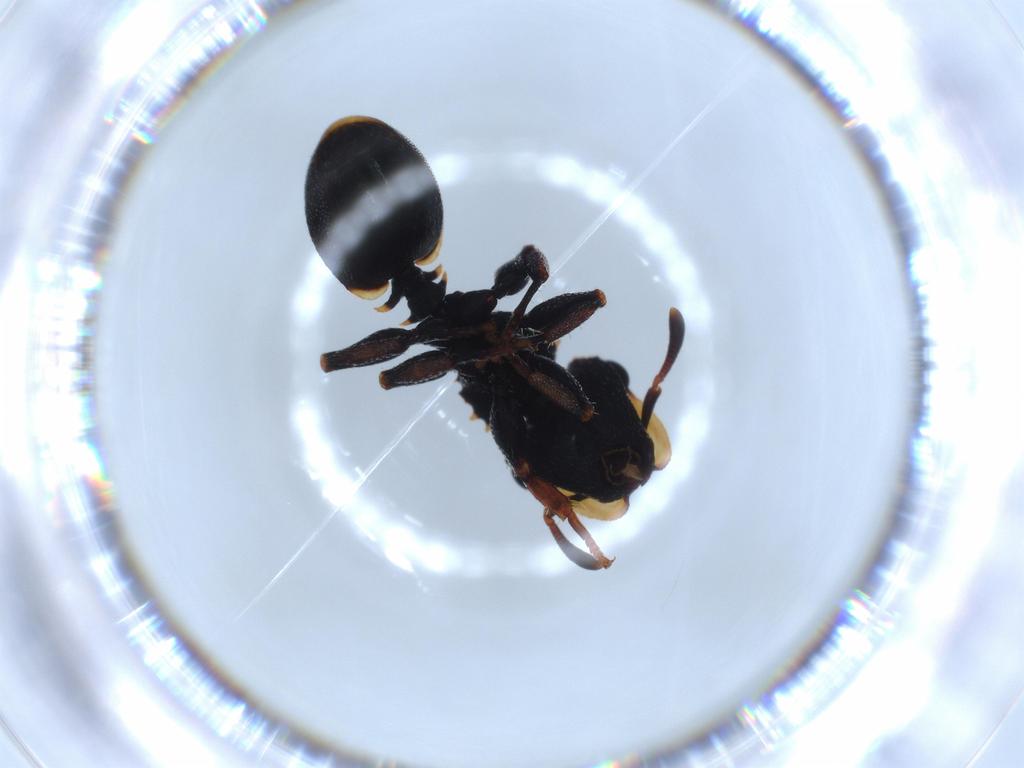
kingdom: Animalia
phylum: Arthropoda
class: Insecta
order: Hymenoptera
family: Formicidae
